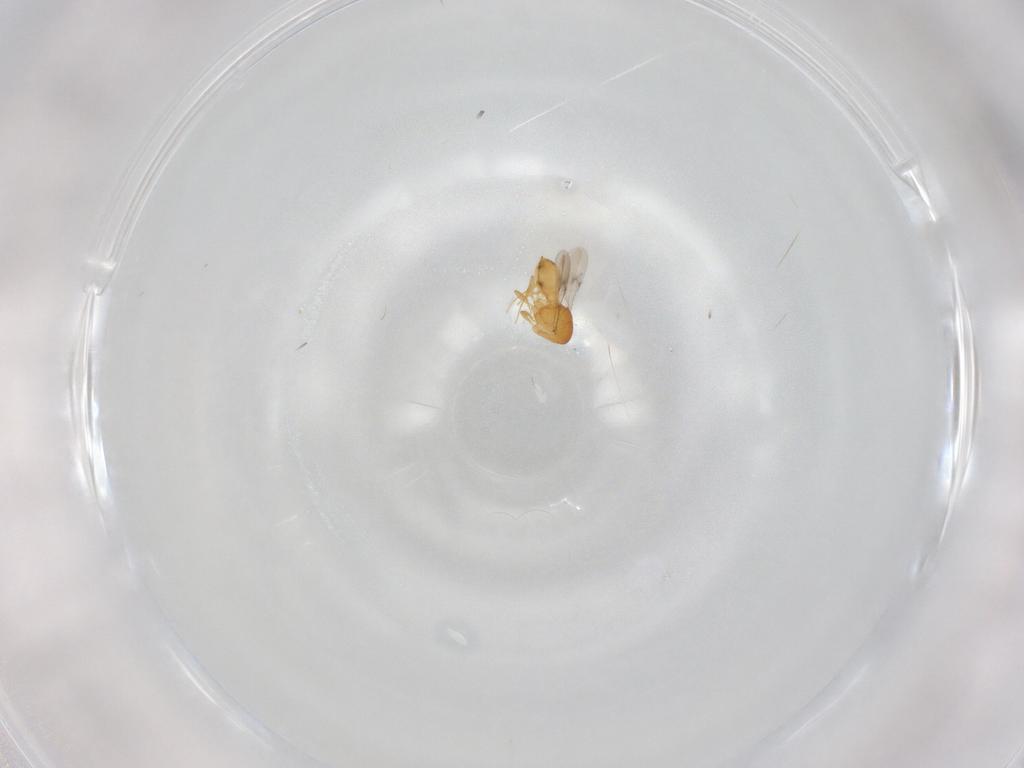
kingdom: Animalia
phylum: Arthropoda
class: Insecta
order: Hymenoptera
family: Scelionidae
